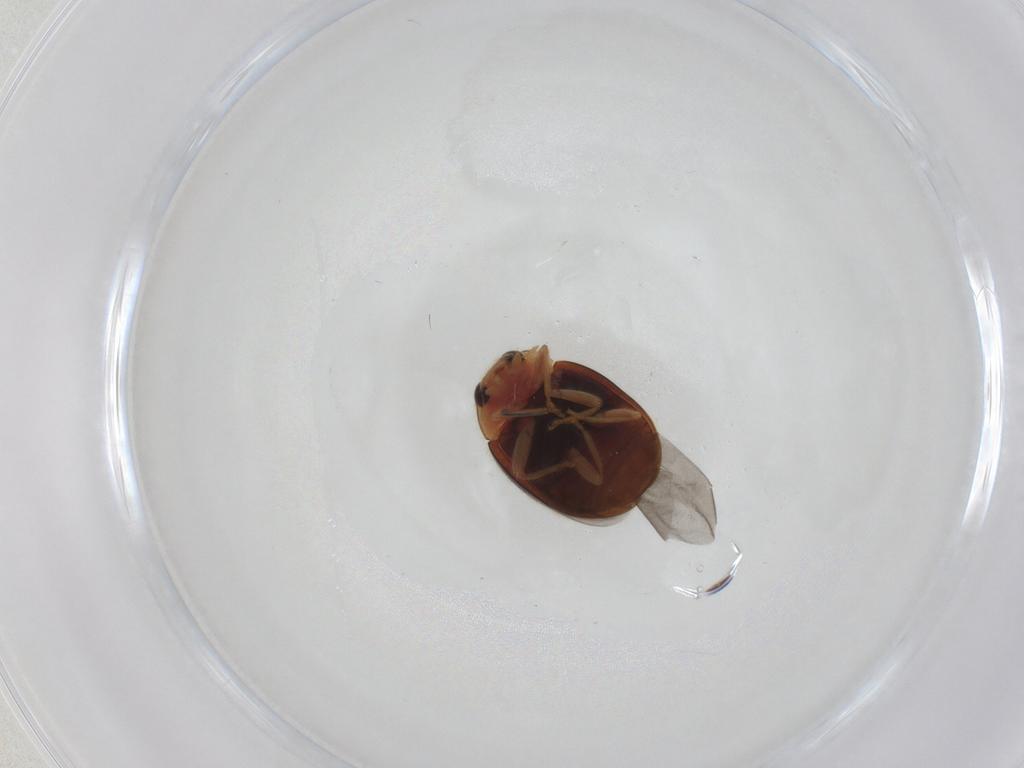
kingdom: Animalia
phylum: Arthropoda
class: Insecta
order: Coleoptera
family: Coccinellidae
